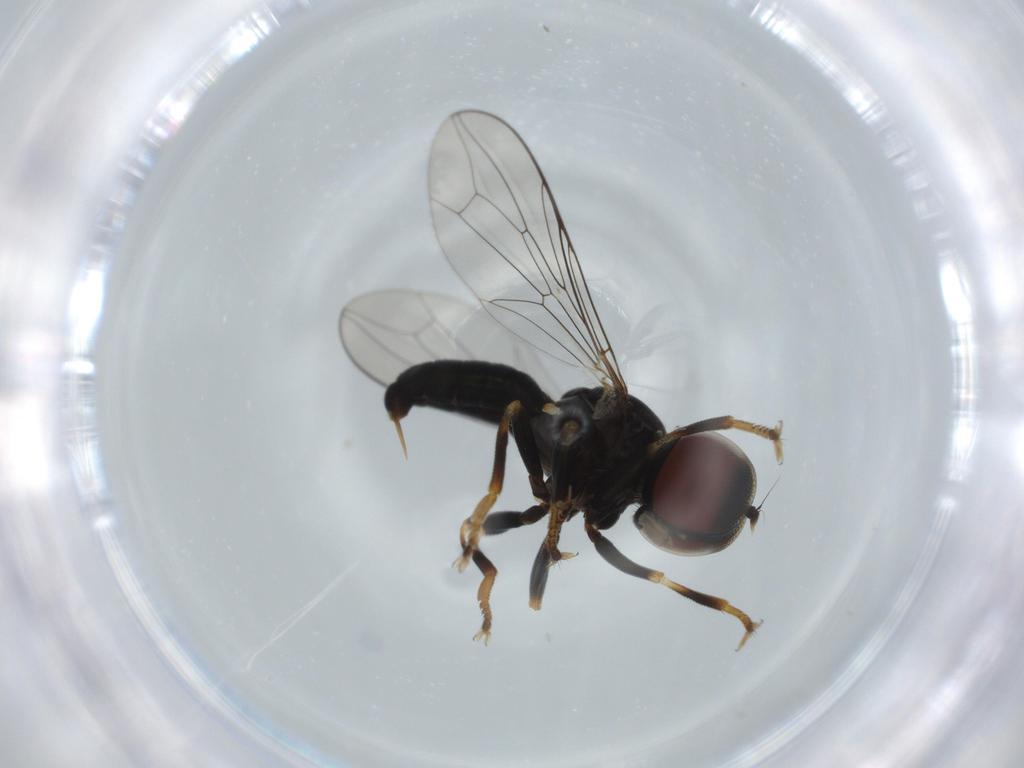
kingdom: Animalia
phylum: Arthropoda
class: Insecta
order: Diptera
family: Pipunculidae
